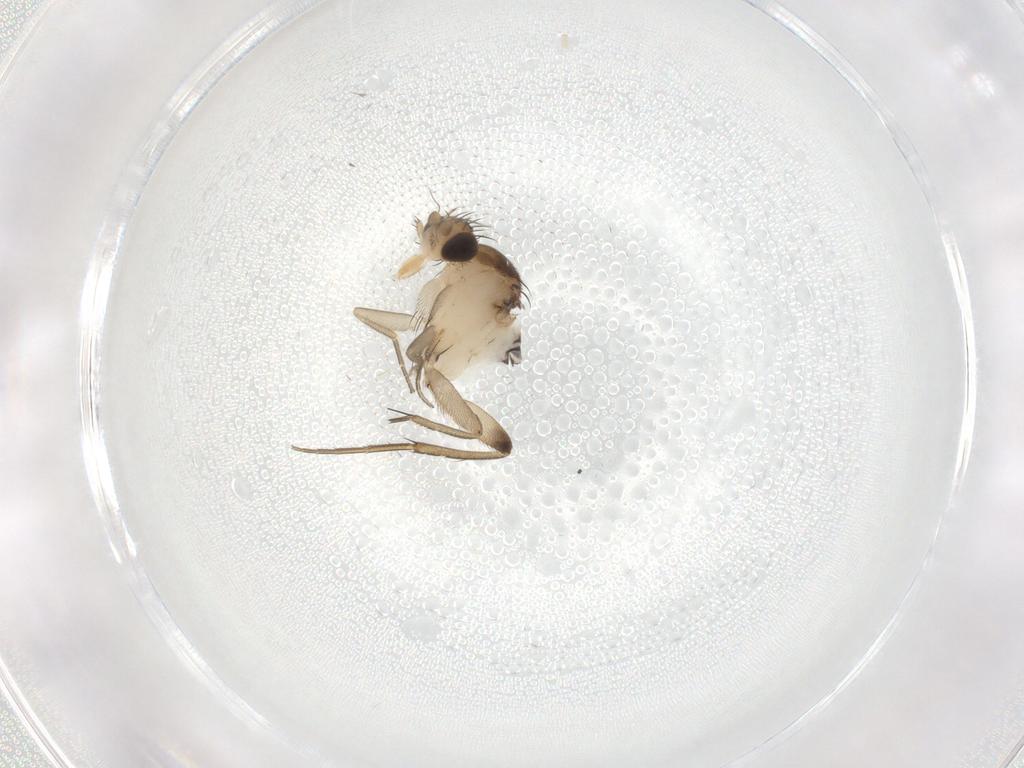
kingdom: Animalia
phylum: Arthropoda
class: Insecta
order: Diptera
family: Phoridae
